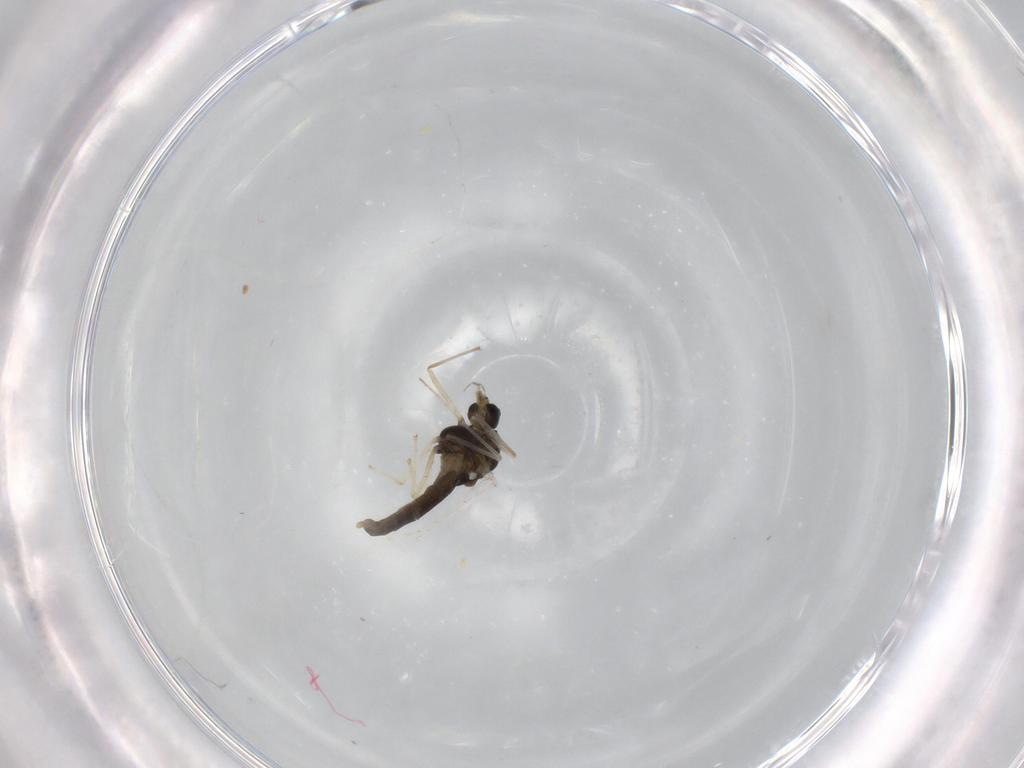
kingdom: Animalia
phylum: Arthropoda
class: Insecta
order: Diptera
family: Chironomidae
